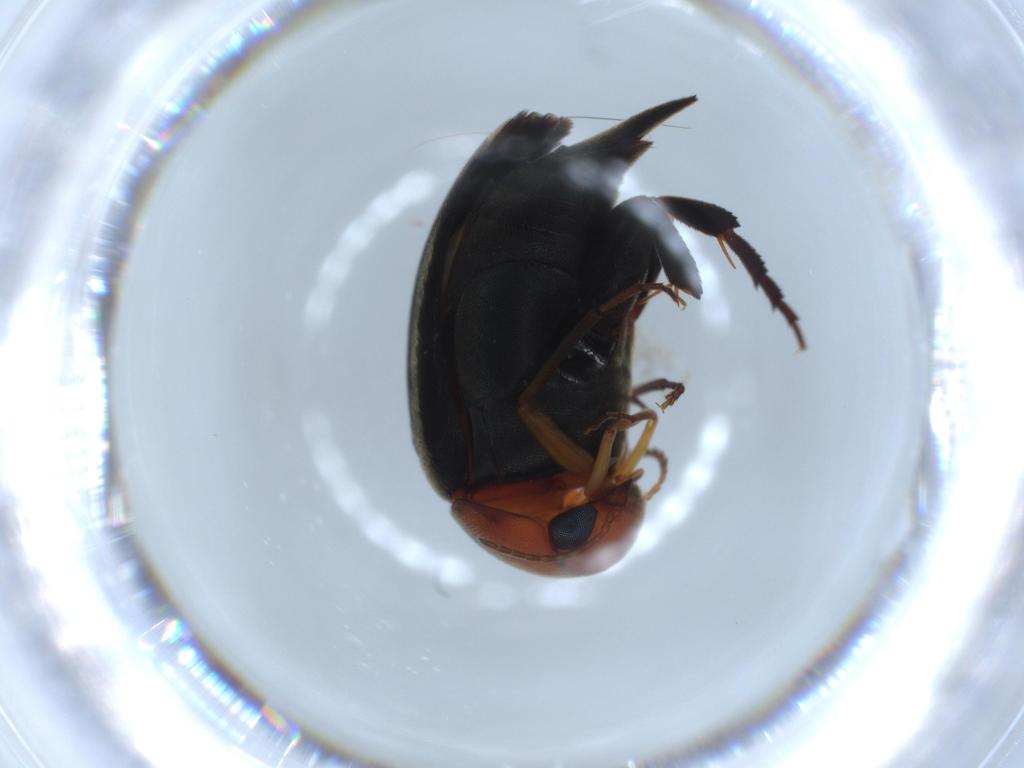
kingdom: Animalia
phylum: Arthropoda
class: Insecta
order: Coleoptera
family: Mordellidae
